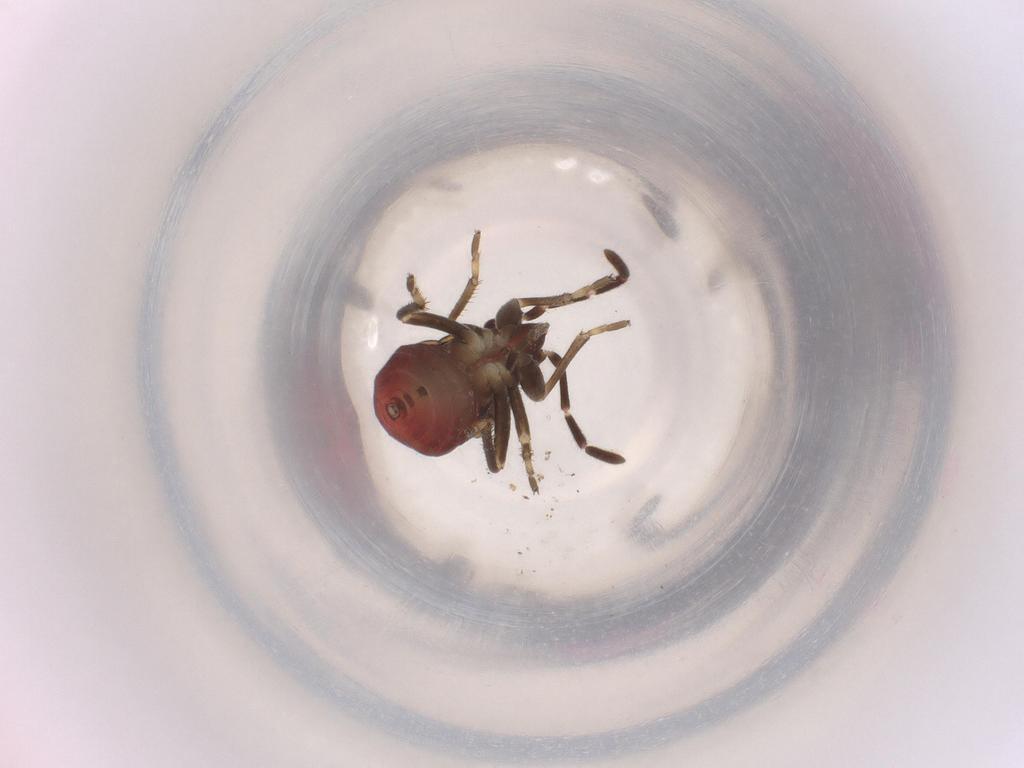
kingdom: Animalia
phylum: Arthropoda
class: Insecta
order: Hemiptera
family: Rhyparochromidae
